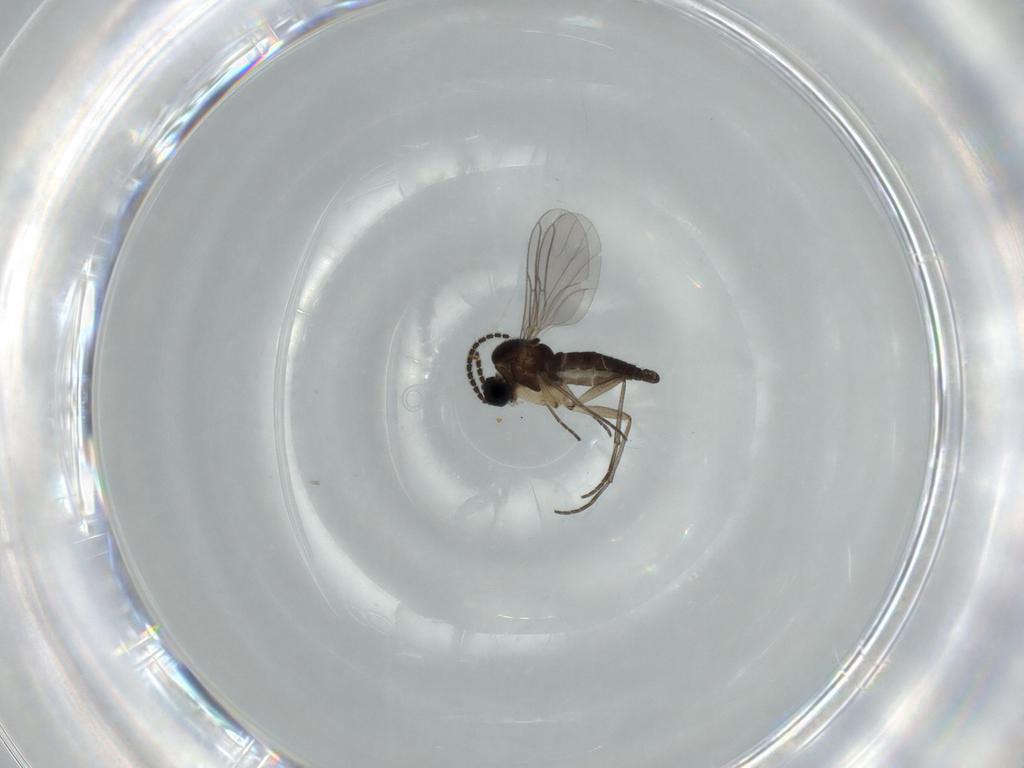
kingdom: Animalia
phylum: Arthropoda
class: Insecta
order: Diptera
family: Sciaridae
